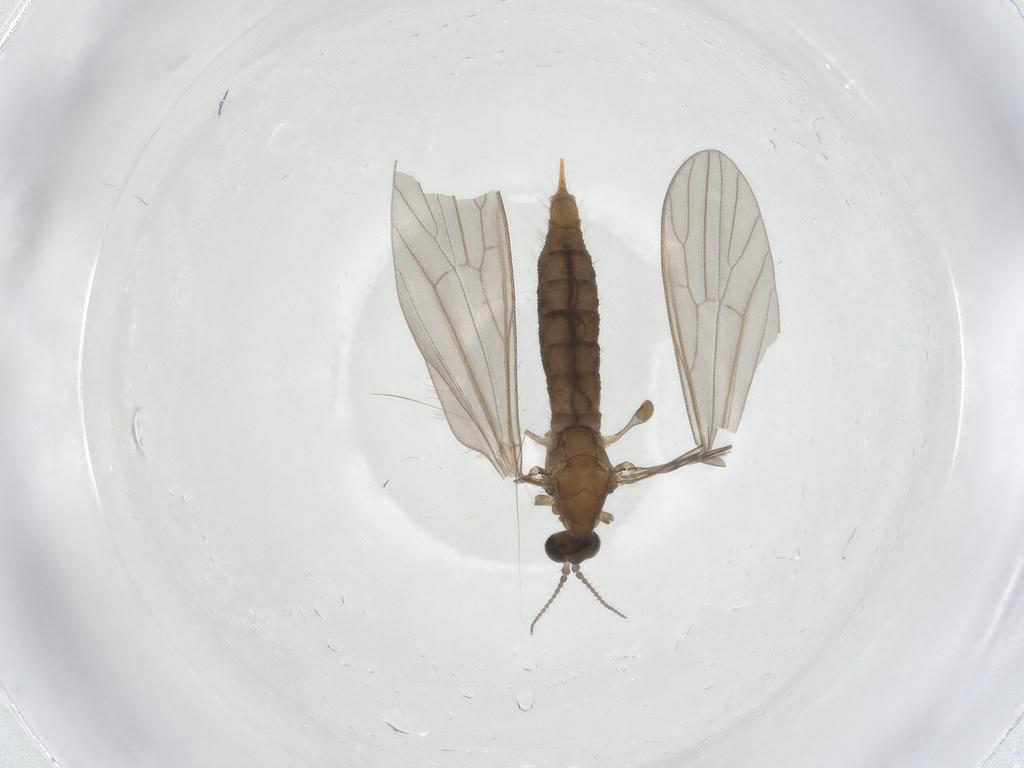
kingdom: Animalia
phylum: Arthropoda
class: Insecta
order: Diptera
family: Limoniidae
